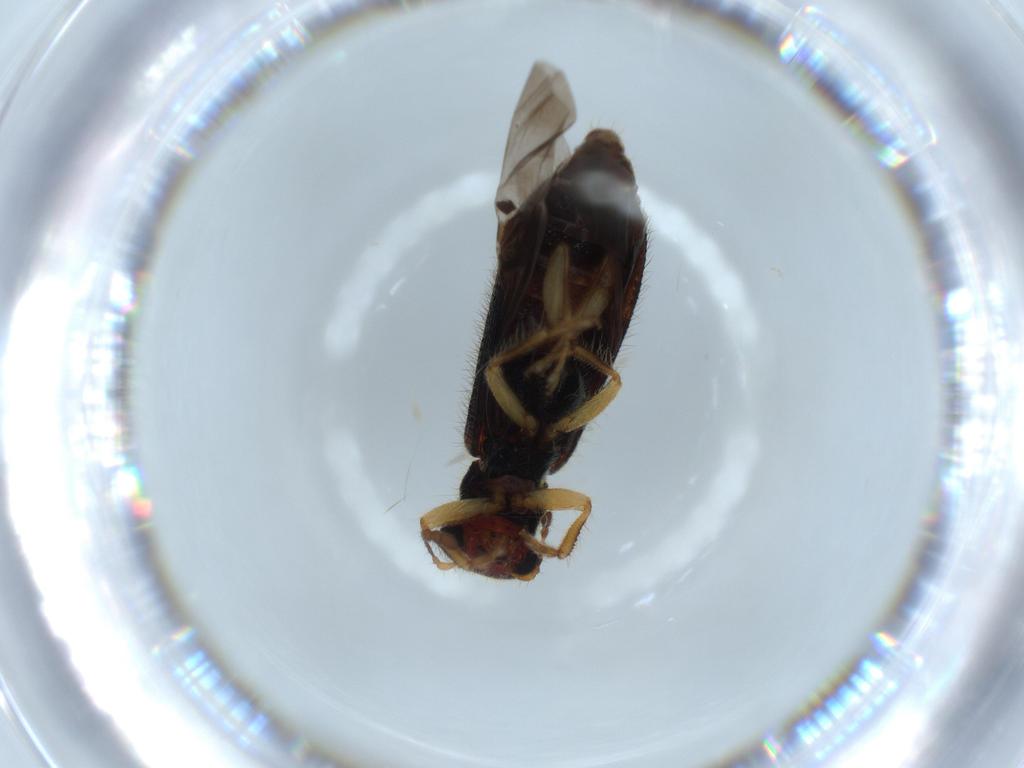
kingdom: Animalia
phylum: Arthropoda
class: Insecta
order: Coleoptera
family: Cleridae
